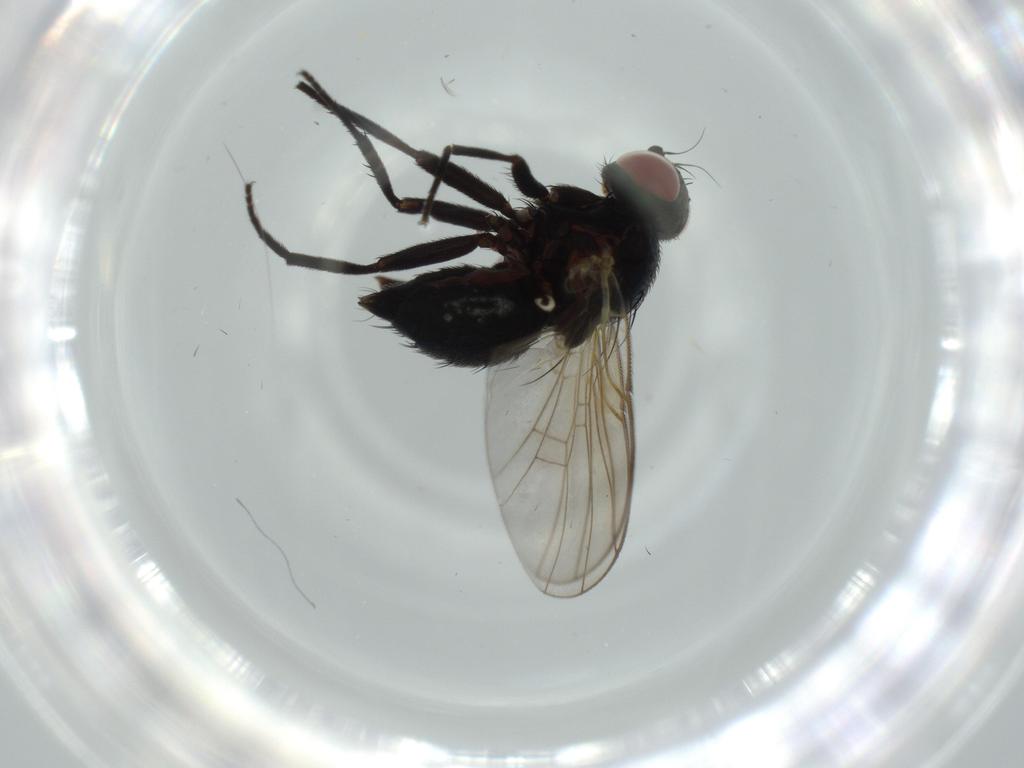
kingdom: Animalia
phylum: Arthropoda
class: Insecta
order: Diptera
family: Agromyzidae
